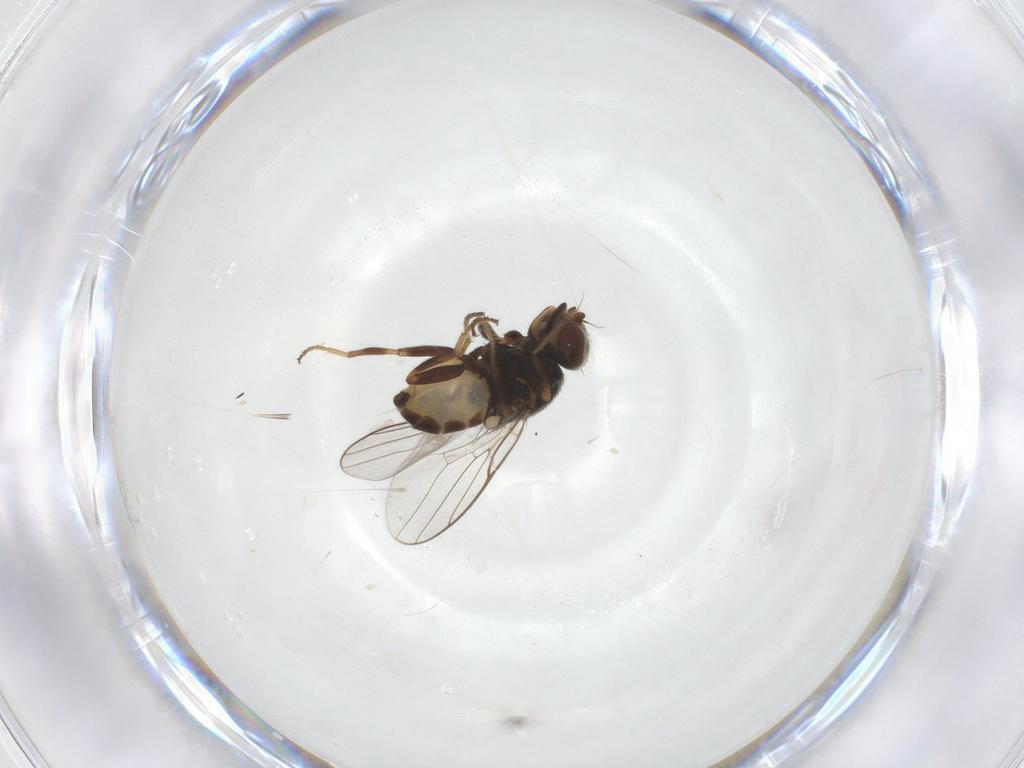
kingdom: Animalia
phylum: Arthropoda
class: Insecta
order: Diptera
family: Chloropidae
